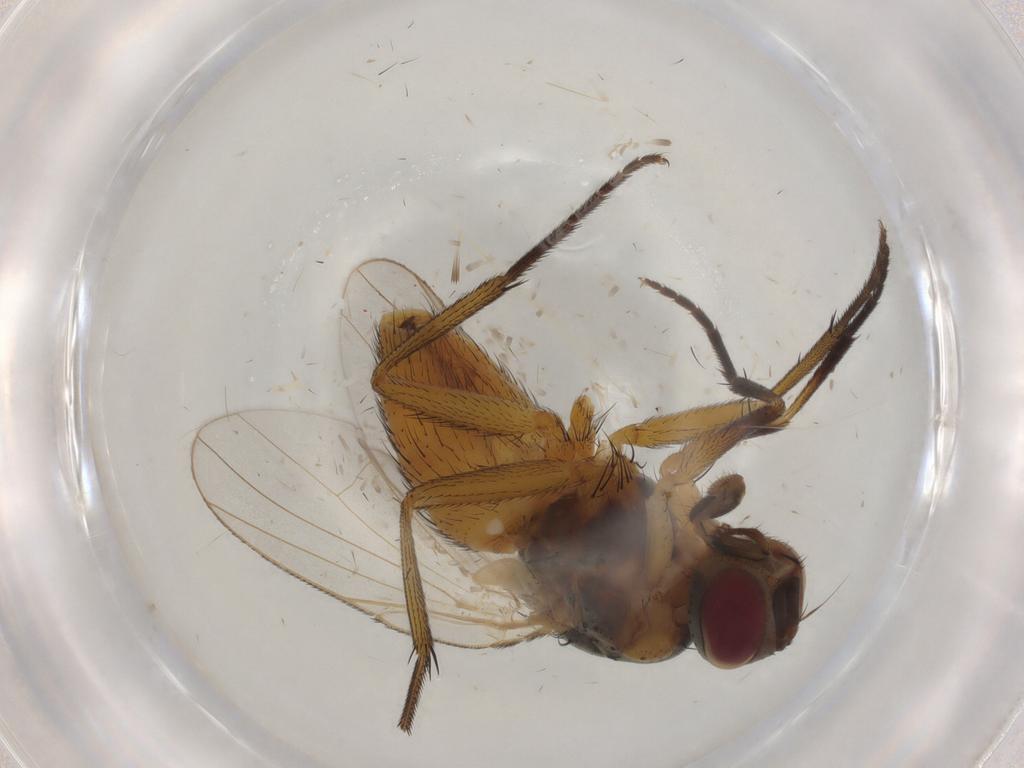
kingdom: Animalia
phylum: Arthropoda
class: Insecta
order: Diptera
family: Muscidae
